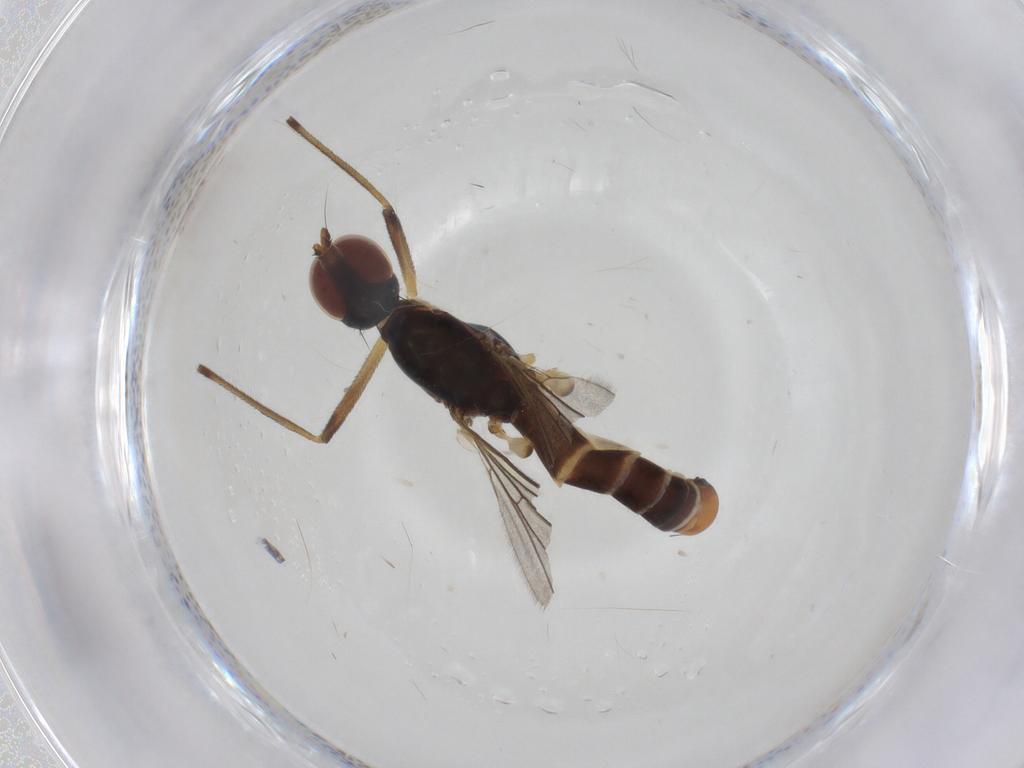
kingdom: Animalia
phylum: Arthropoda
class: Insecta
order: Diptera
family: Micropezidae
